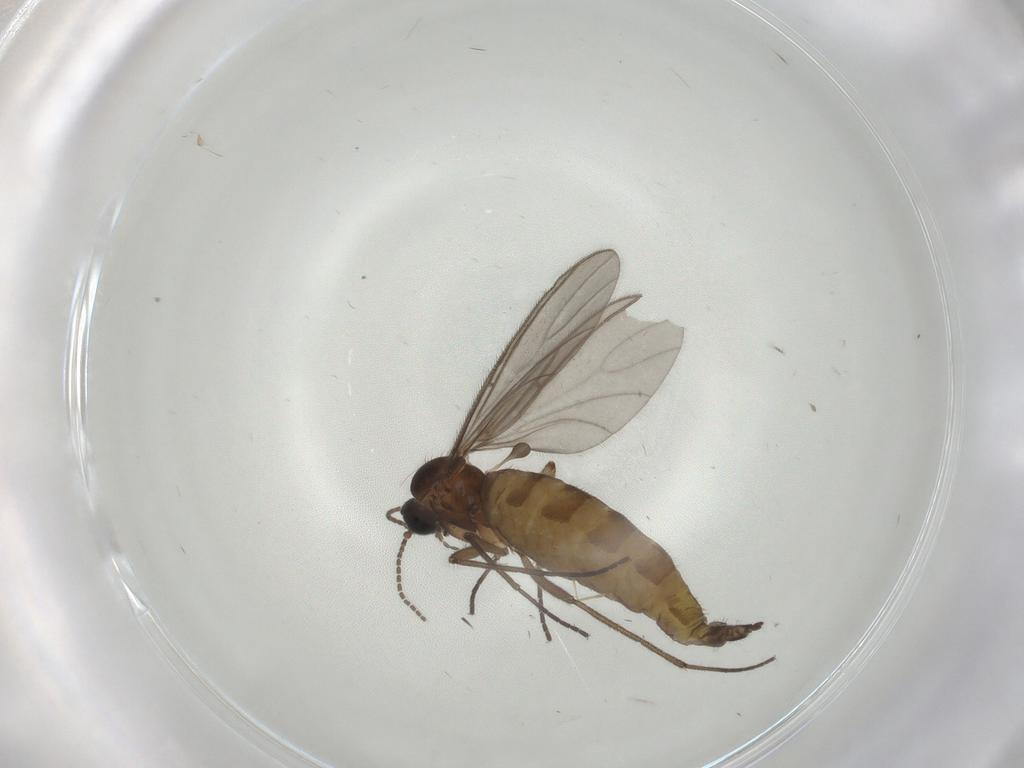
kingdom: Animalia
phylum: Arthropoda
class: Insecta
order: Diptera
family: Sciaridae
